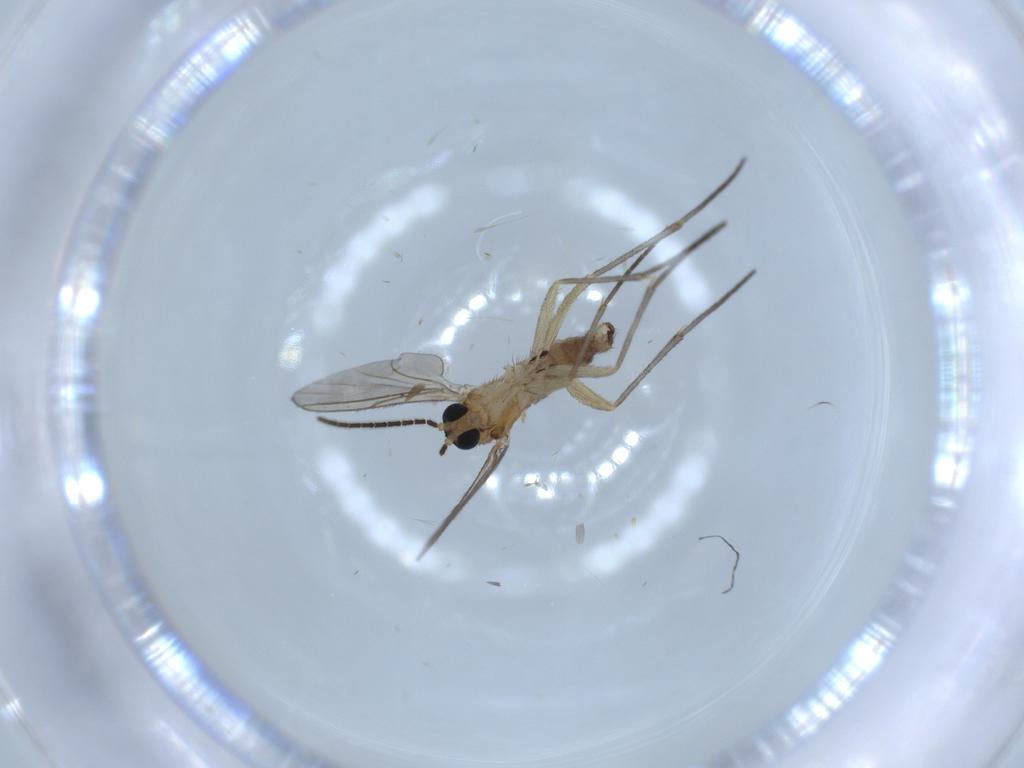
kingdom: Animalia
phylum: Arthropoda
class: Insecta
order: Diptera
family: Sciaridae
